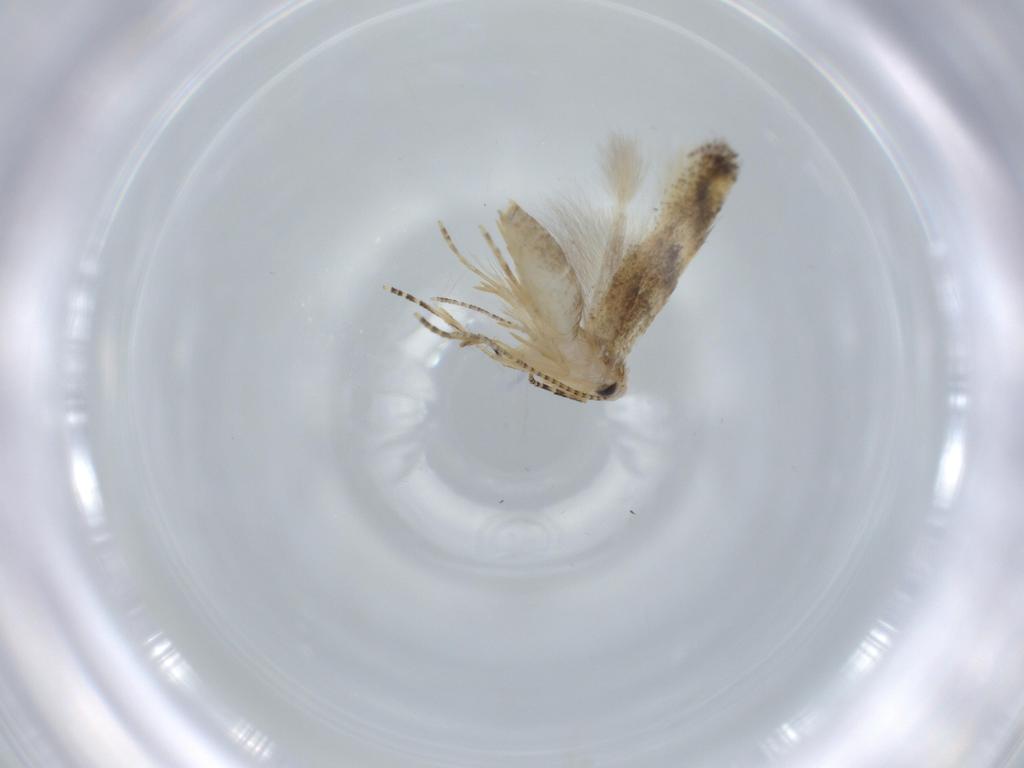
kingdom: Animalia
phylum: Arthropoda
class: Insecta
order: Lepidoptera
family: Bucculatricidae
